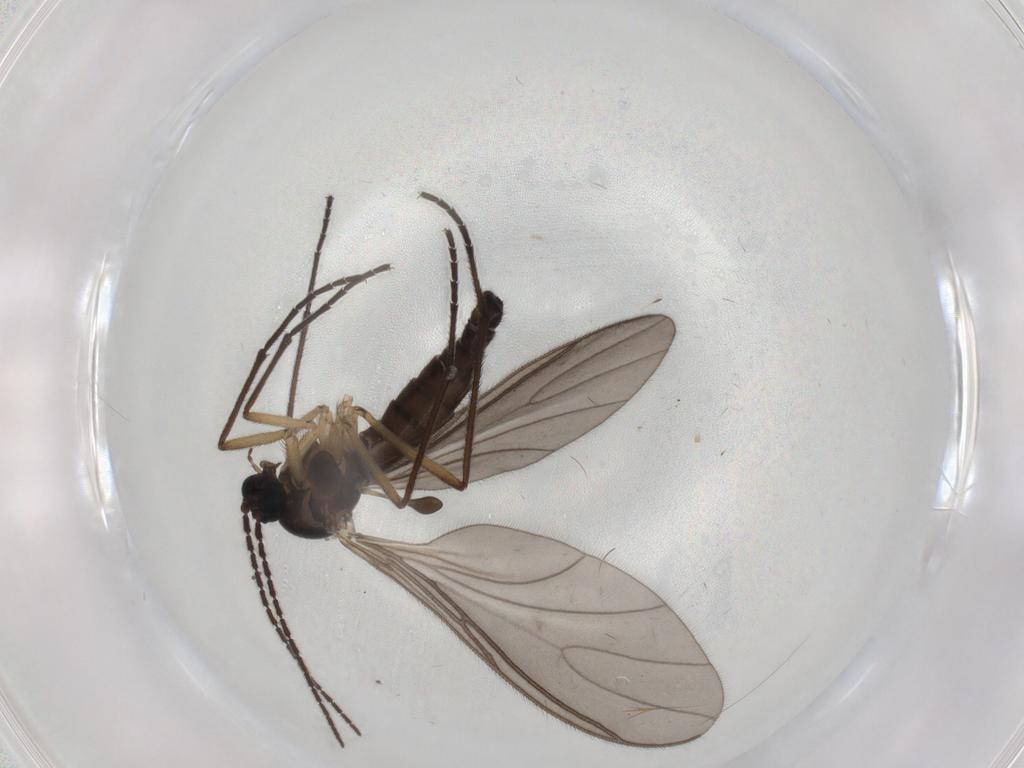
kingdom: Animalia
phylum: Arthropoda
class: Insecta
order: Diptera
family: Sciaridae
